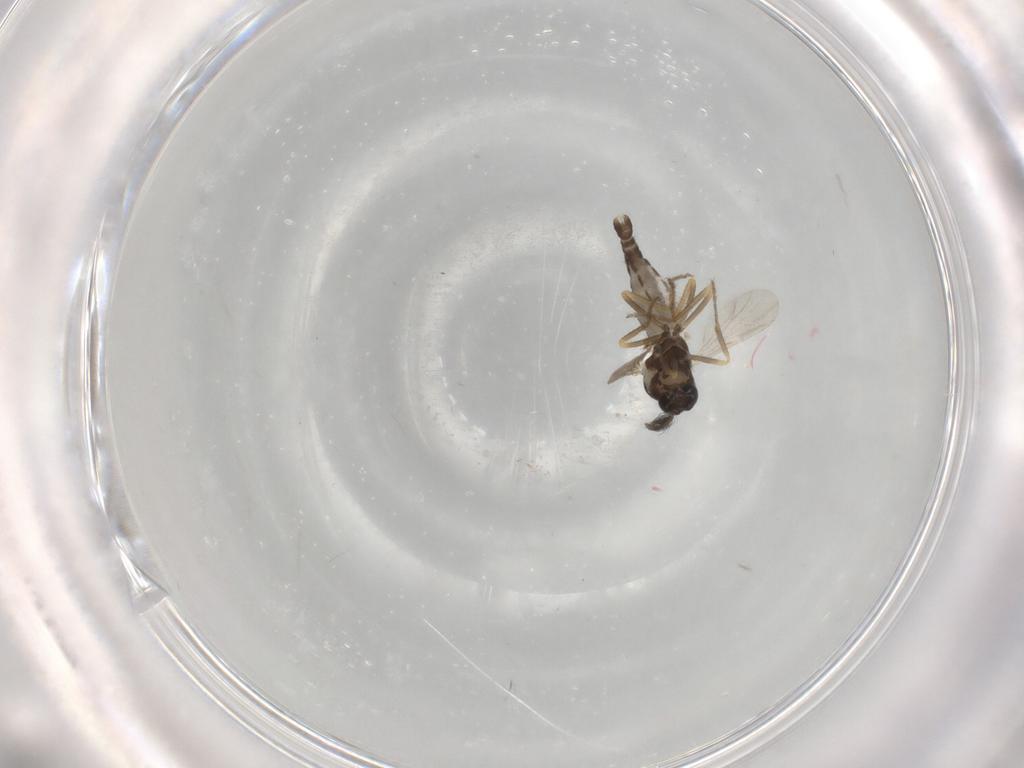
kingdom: Animalia
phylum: Arthropoda
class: Insecta
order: Diptera
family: Ceratopogonidae
